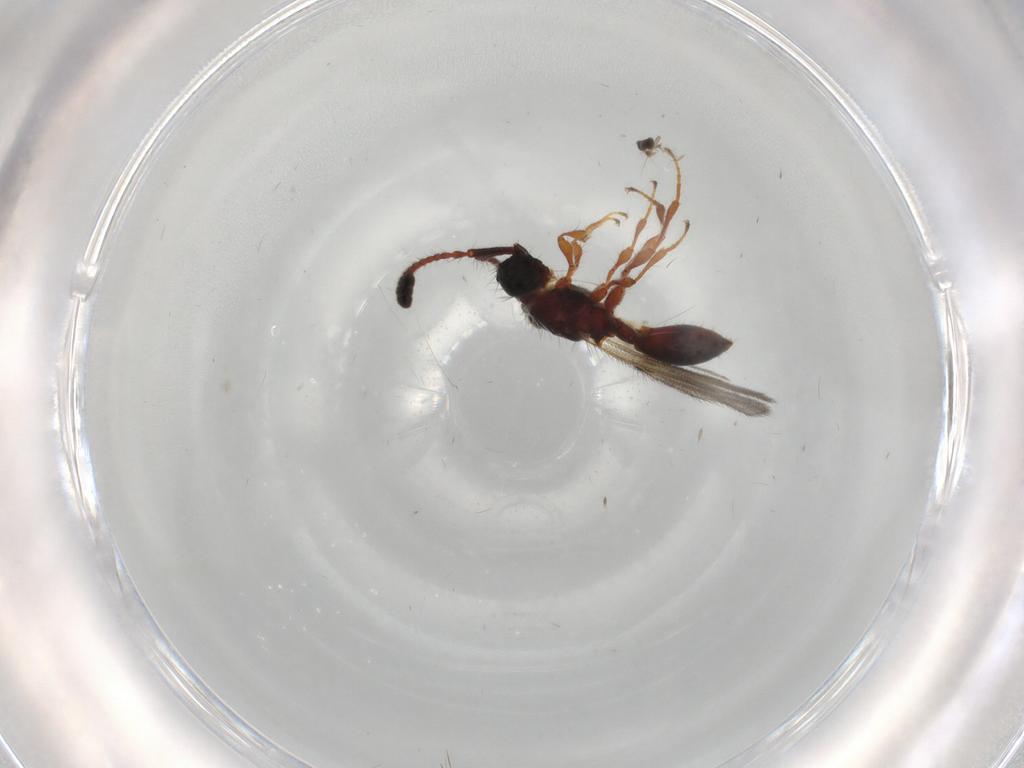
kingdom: Animalia
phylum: Arthropoda
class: Insecta
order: Hymenoptera
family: Diapriidae
